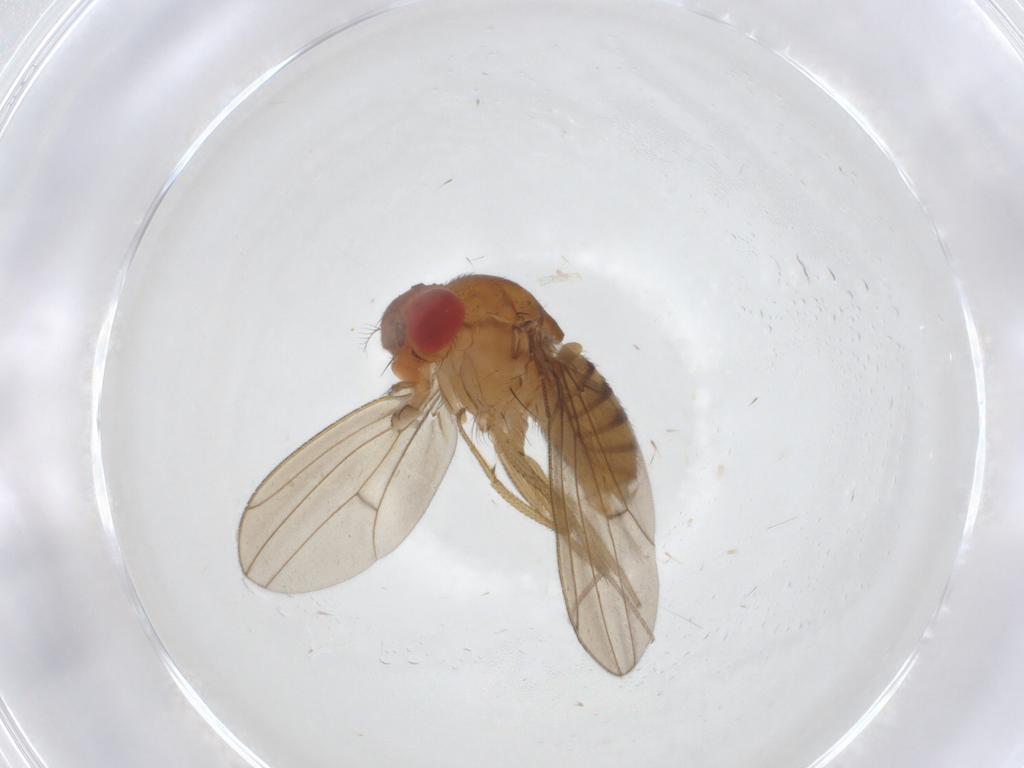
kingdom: Animalia
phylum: Arthropoda
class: Insecta
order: Diptera
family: Drosophilidae
